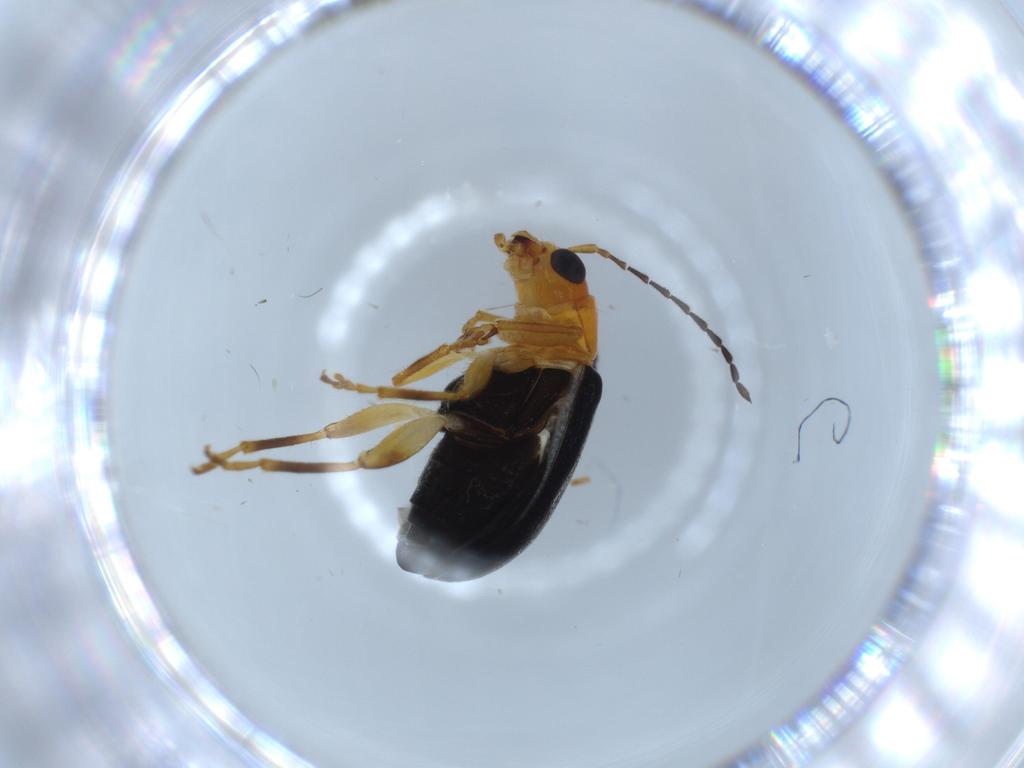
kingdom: Animalia
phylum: Arthropoda
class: Insecta
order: Coleoptera
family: Chrysomelidae
